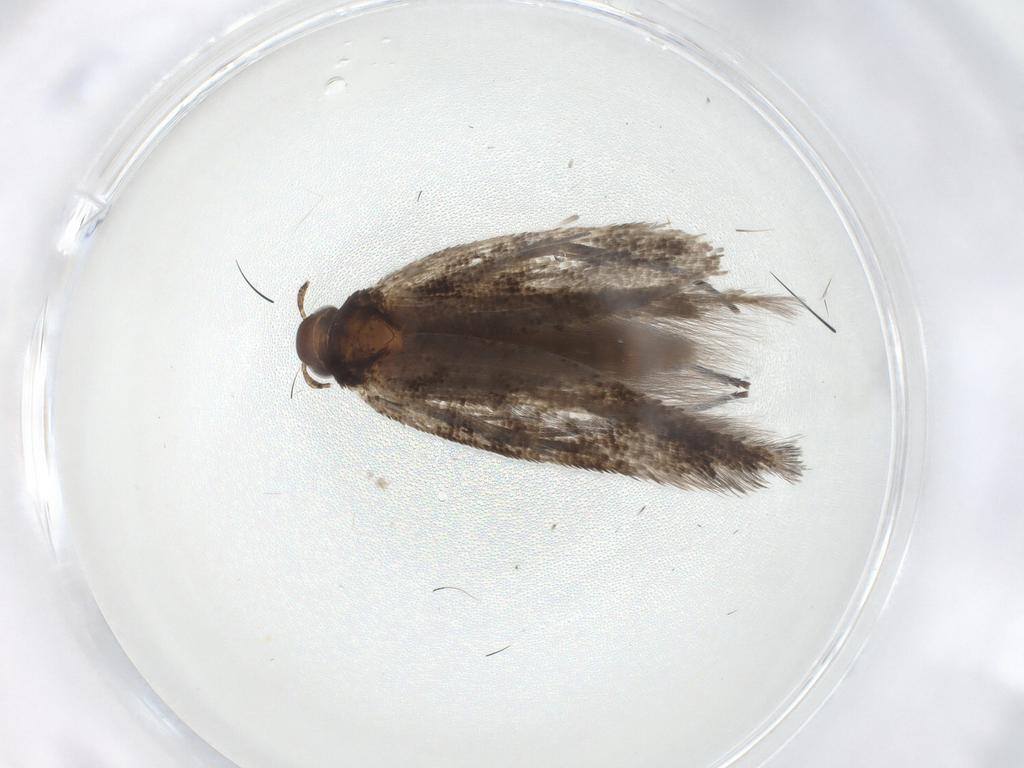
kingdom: Animalia
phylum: Arthropoda
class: Insecta
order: Lepidoptera
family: Gelechiidae
